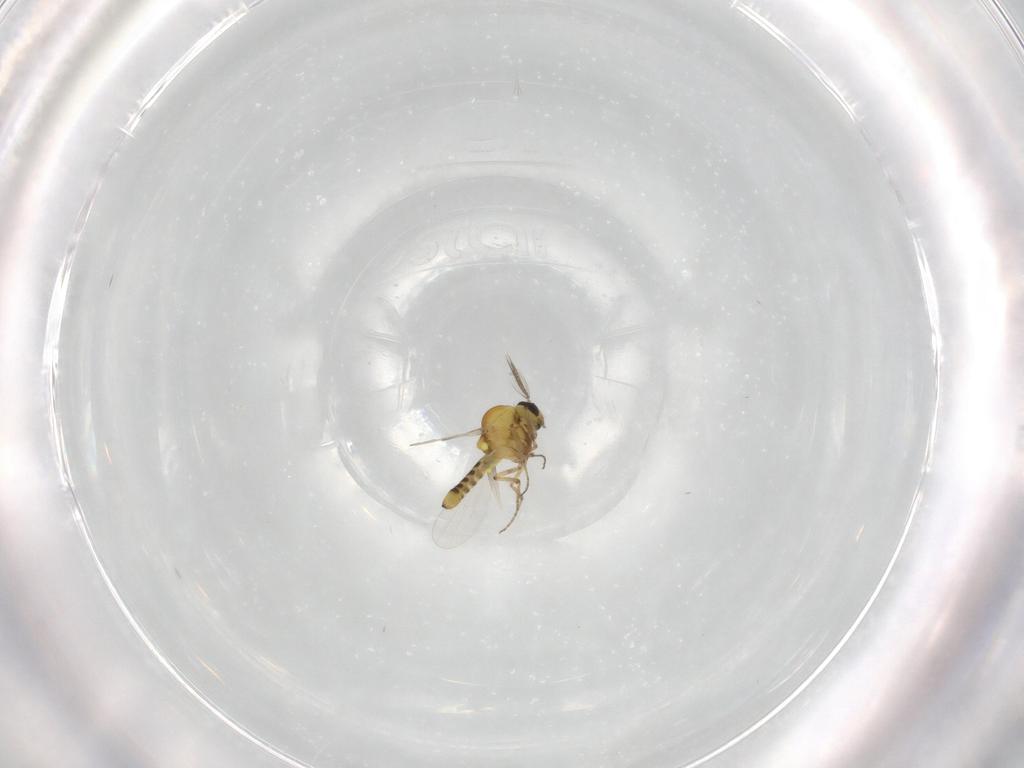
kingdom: Animalia
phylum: Arthropoda
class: Insecta
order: Diptera
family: Ceratopogonidae
